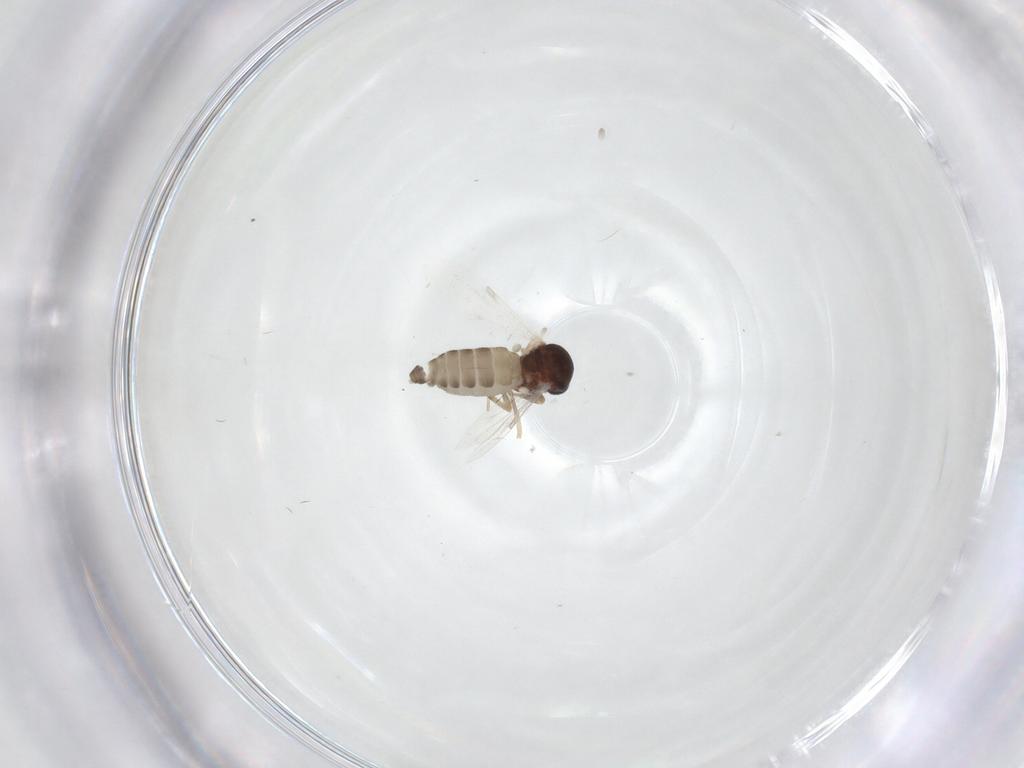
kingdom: Animalia
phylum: Arthropoda
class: Insecta
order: Diptera
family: Ceratopogonidae
